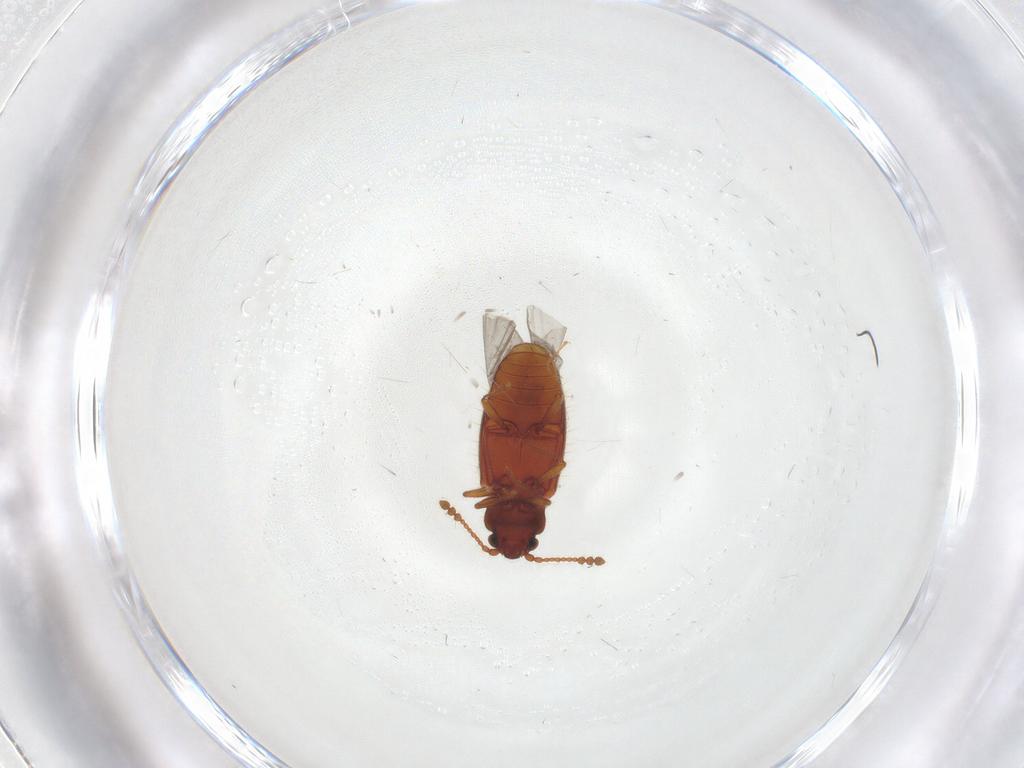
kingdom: Animalia
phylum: Arthropoda
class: Insecta
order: Coleoptera
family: Cryptophagidae
